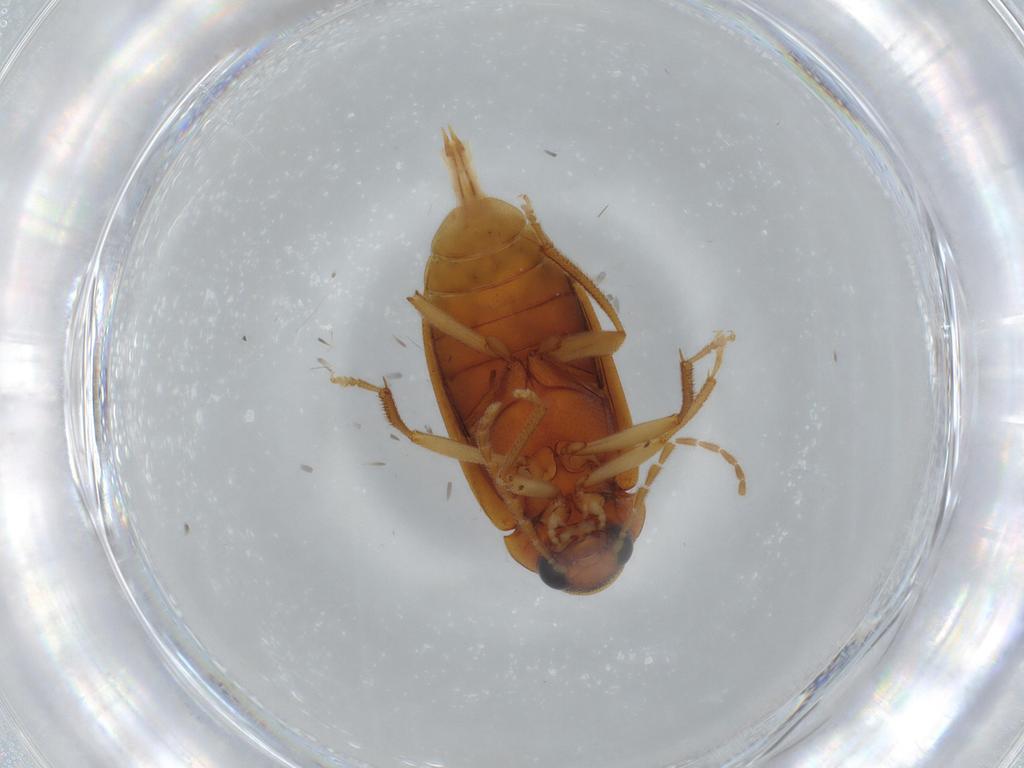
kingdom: Animalia
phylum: Arthropoda
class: Insecta
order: Coleoptera
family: Ptilodactylidae
